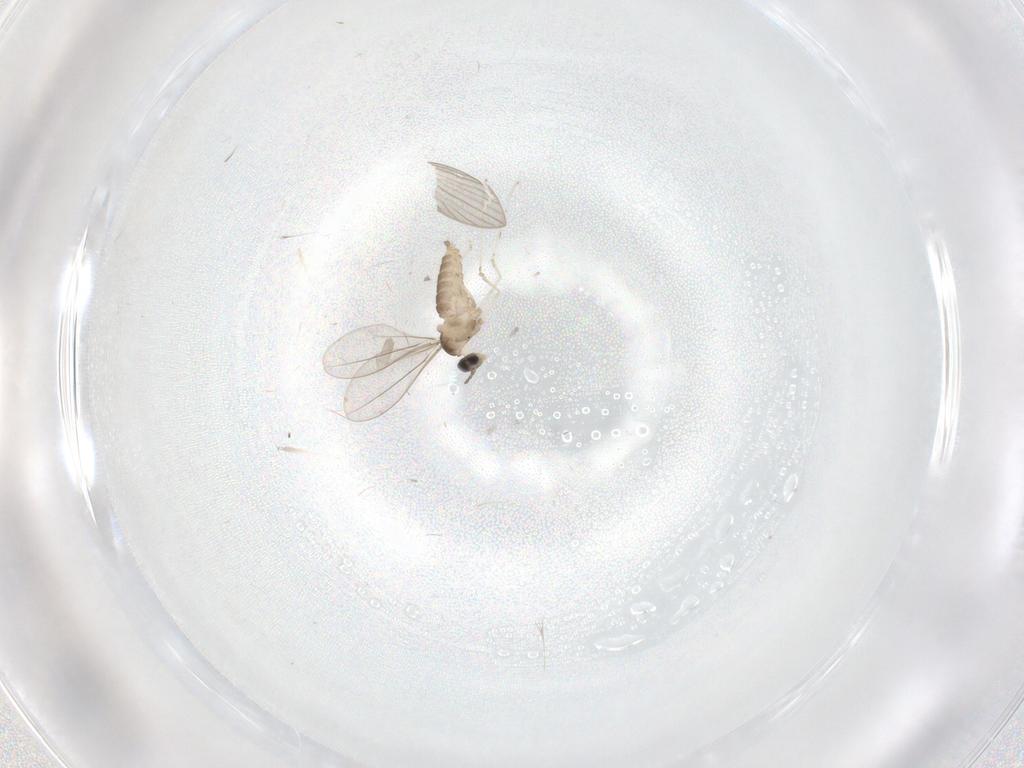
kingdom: Animalia
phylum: Arthropoda
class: Insecta
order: Diptera
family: Cecidomyiidae
